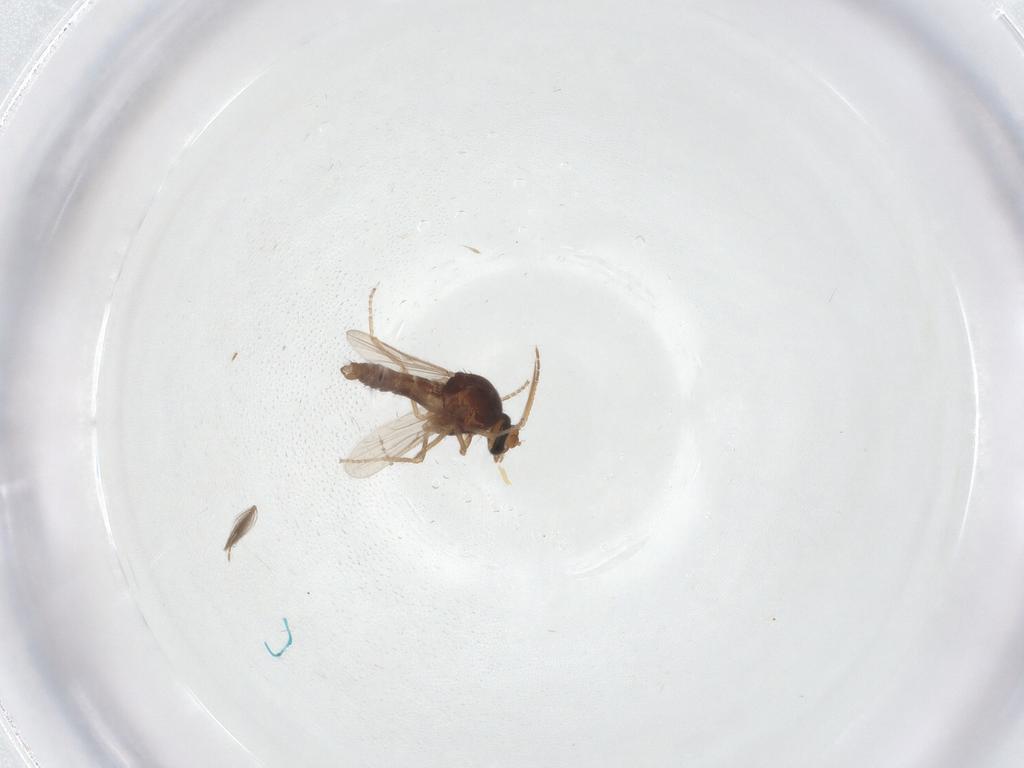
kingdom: Animalia
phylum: Arthropoda
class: Insecta
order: Diptera
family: Ceratopogonidae
